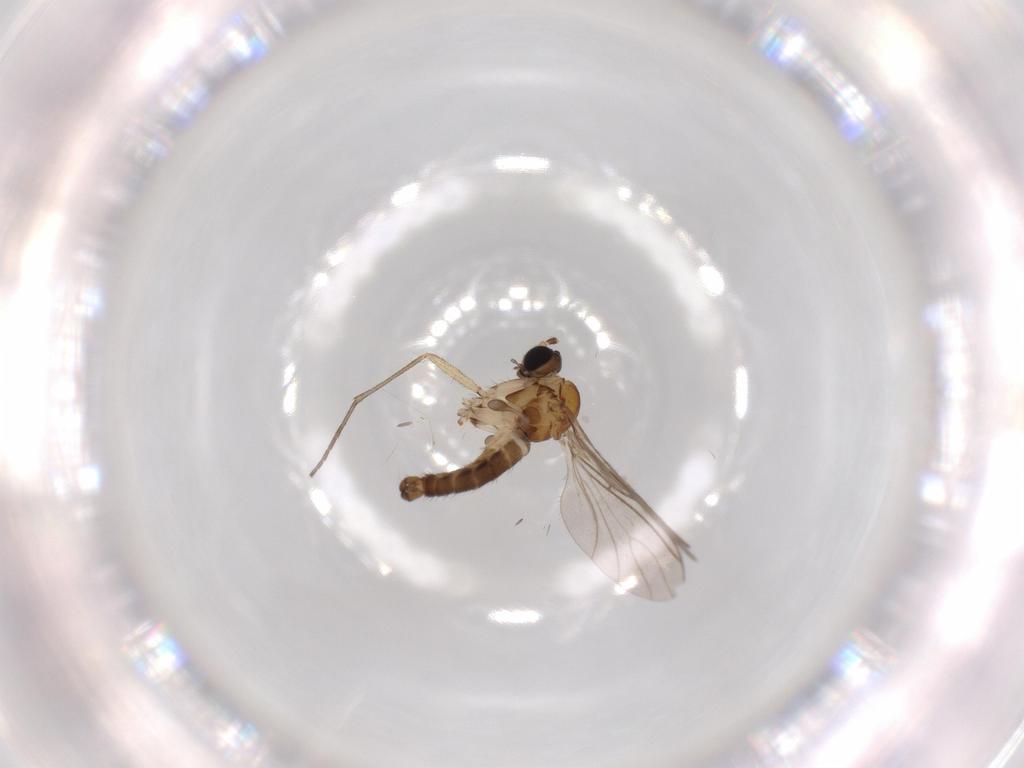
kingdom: Animalia
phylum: Arthropoda
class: Insecta
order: Diptera
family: Sciaridae
